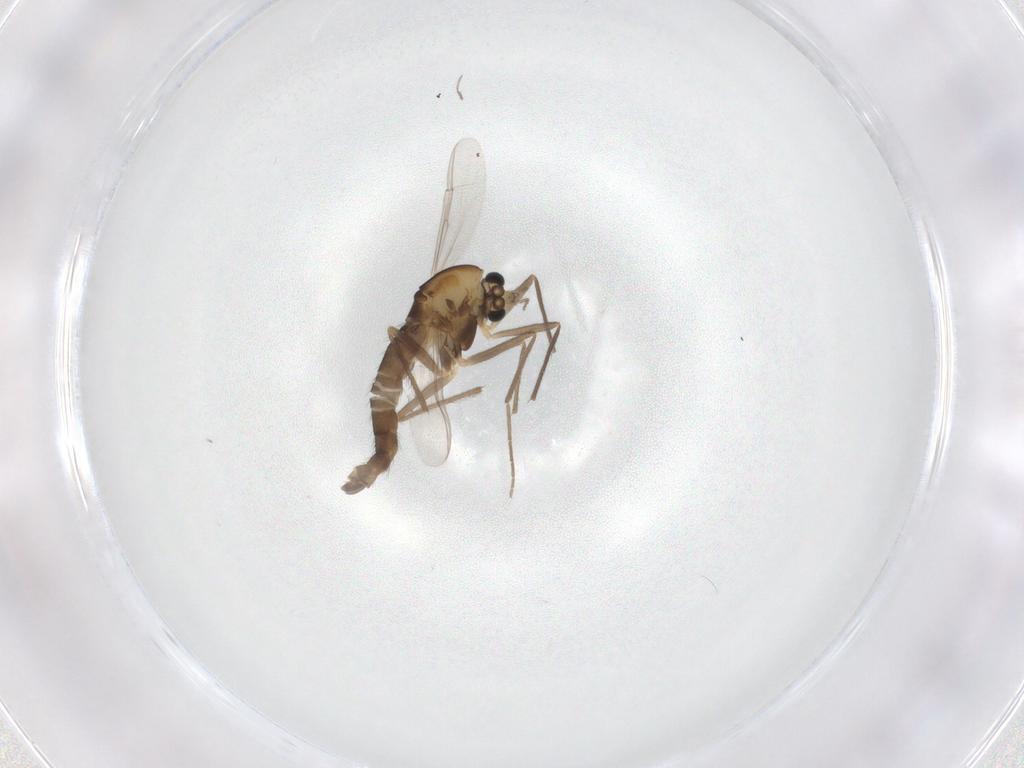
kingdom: Animalia
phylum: Arthropoda
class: Insecta
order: Diptera
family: Chironomidae
